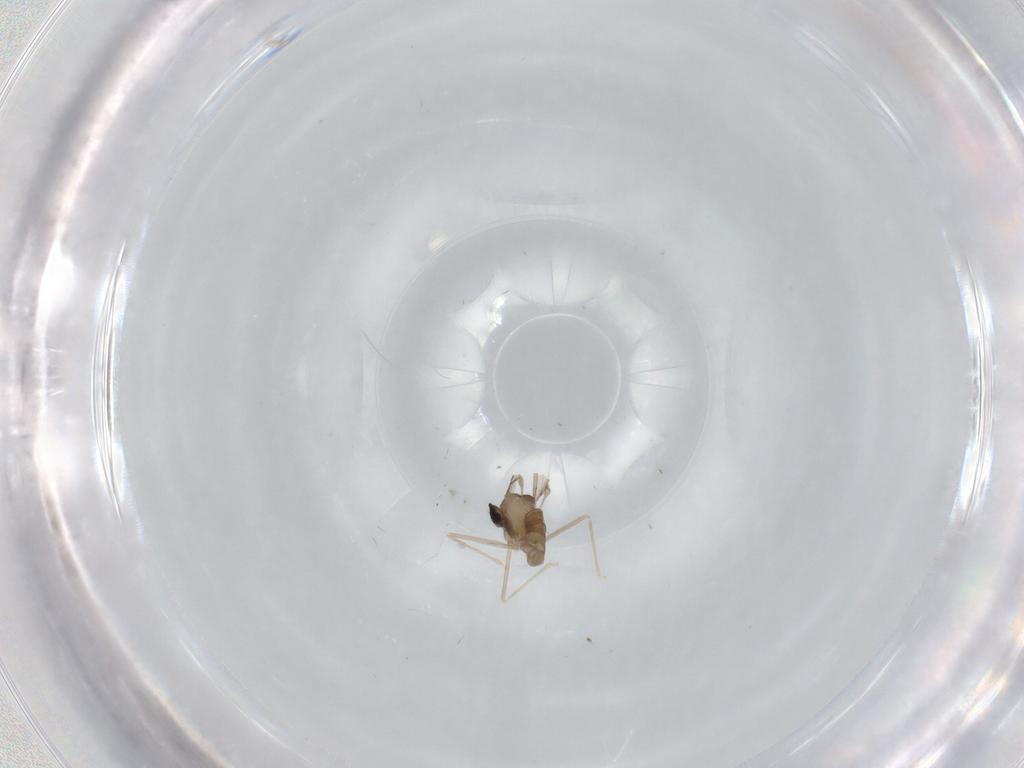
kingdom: Animalia
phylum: Arthropoda
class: Insecta
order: Diptera
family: Cecidomyiidae
